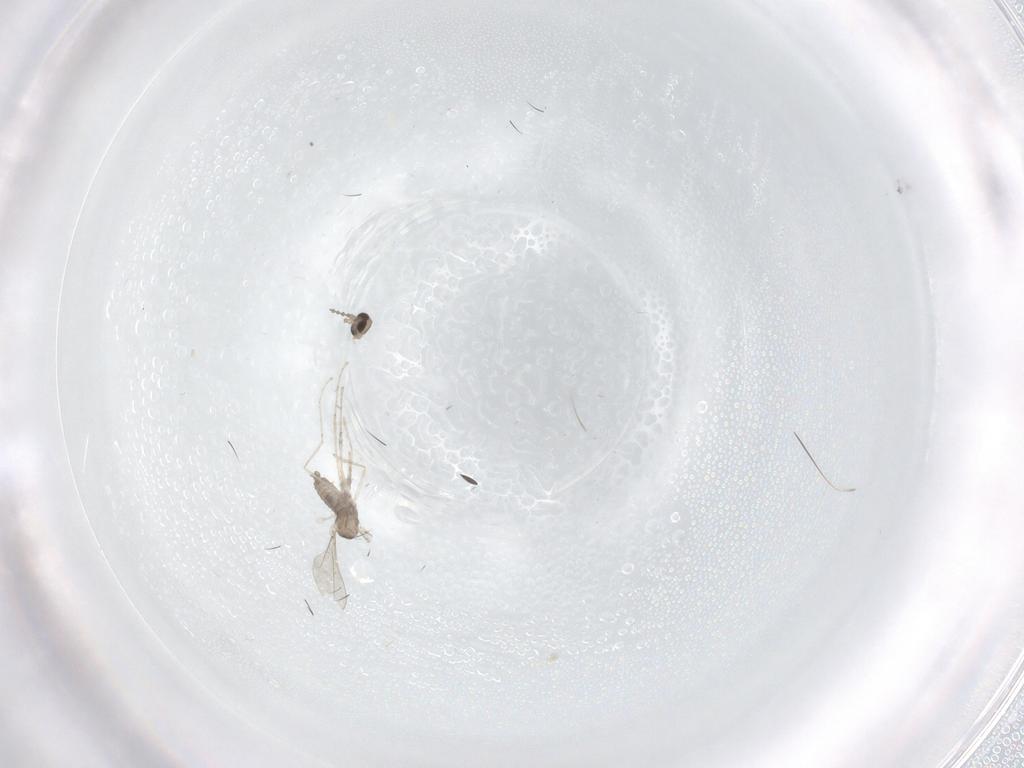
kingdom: Animalia
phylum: Arthropoda
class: Insecta
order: Diptera
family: Cecidomyiidae
